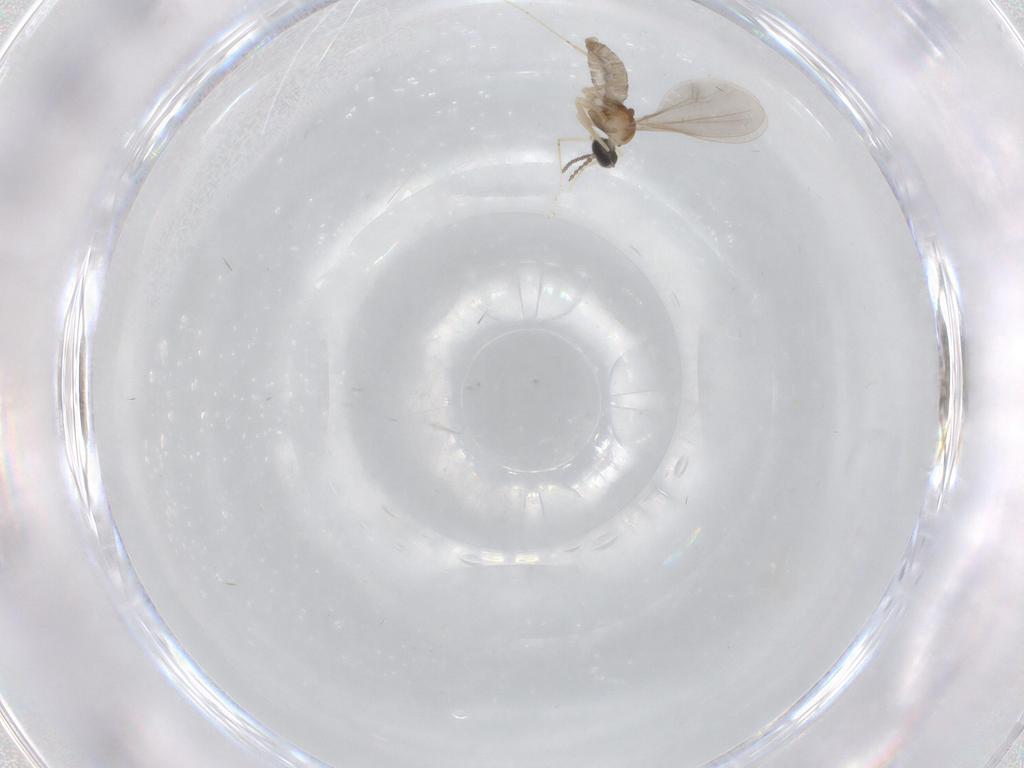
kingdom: Animalia
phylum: Arthropoda
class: Insecta
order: Diptera
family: Cecidomyiidae
